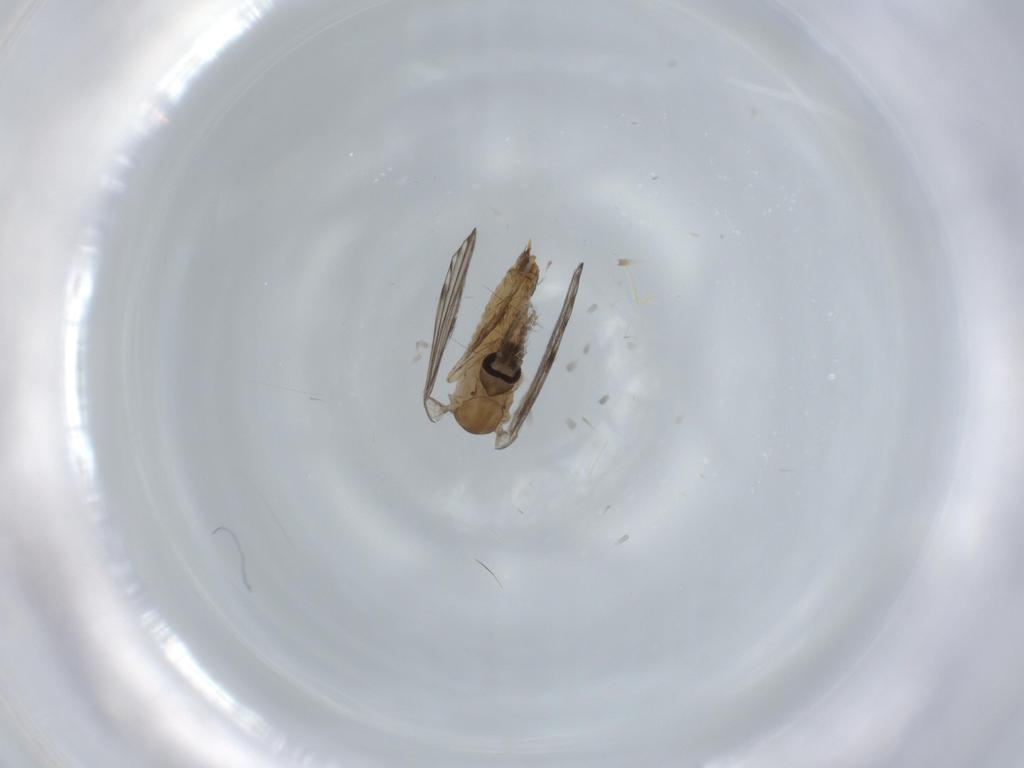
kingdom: Animalia
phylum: Arthropoda
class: Insecta
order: Diptera
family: Psychodidae
